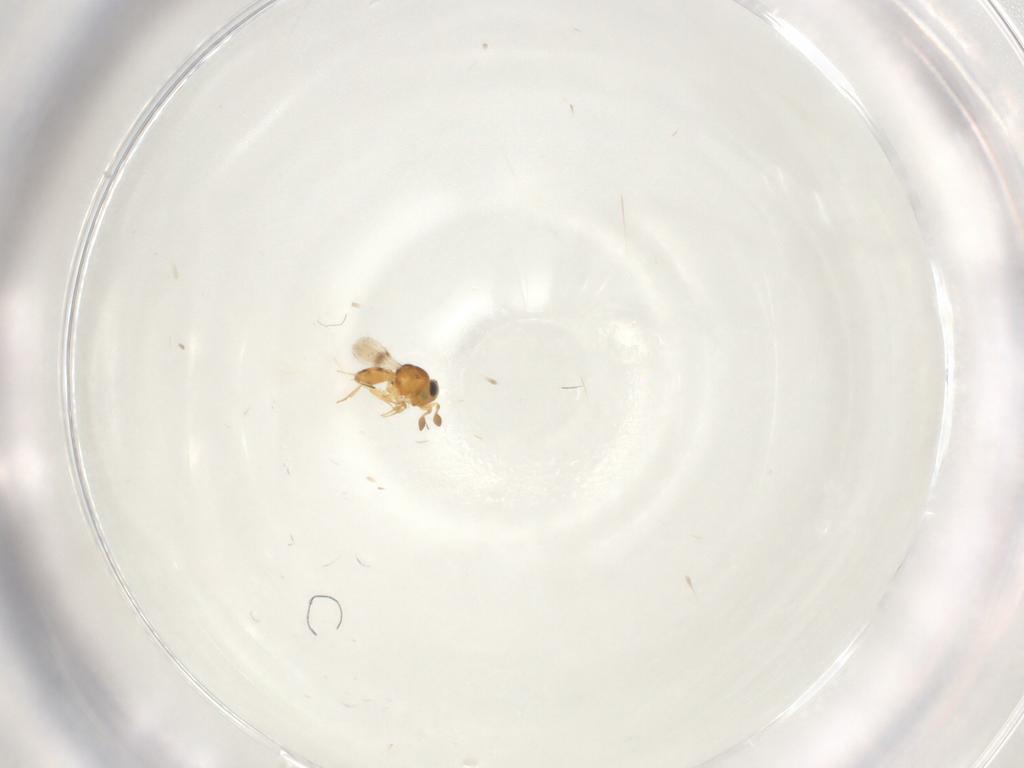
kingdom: Animalia
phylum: Arthropoda
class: Insecta
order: Hymenoptera
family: Scelionidae
